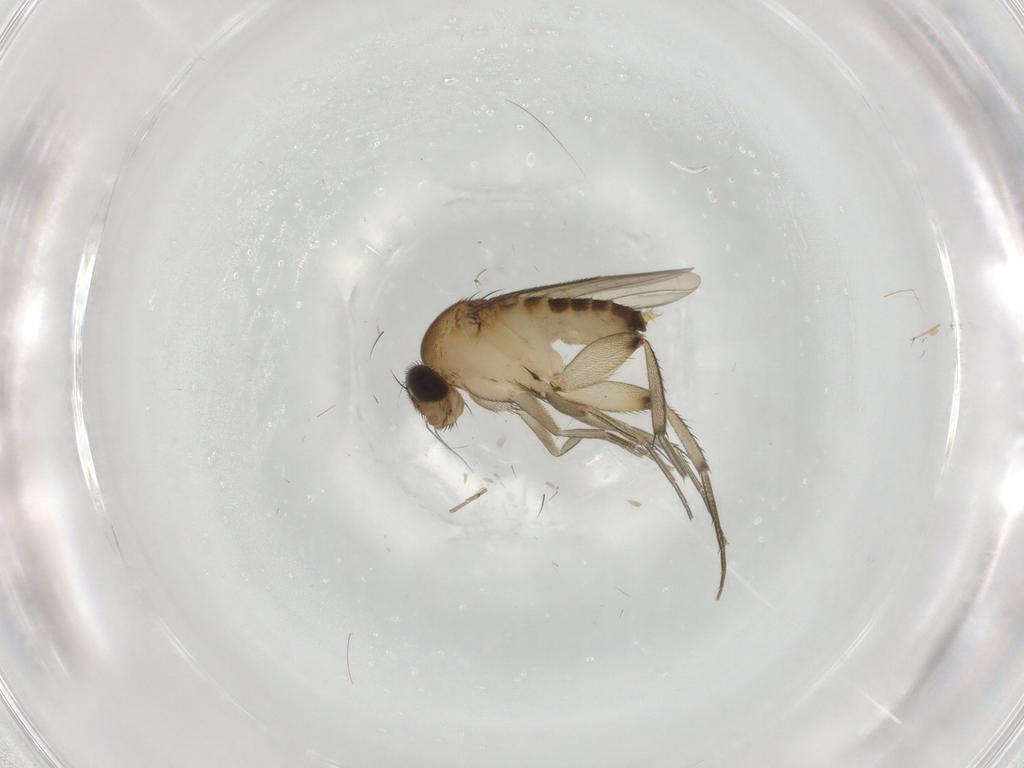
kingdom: Animalia
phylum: Arthropoda
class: Insecta
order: Diptera
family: Phoridae
